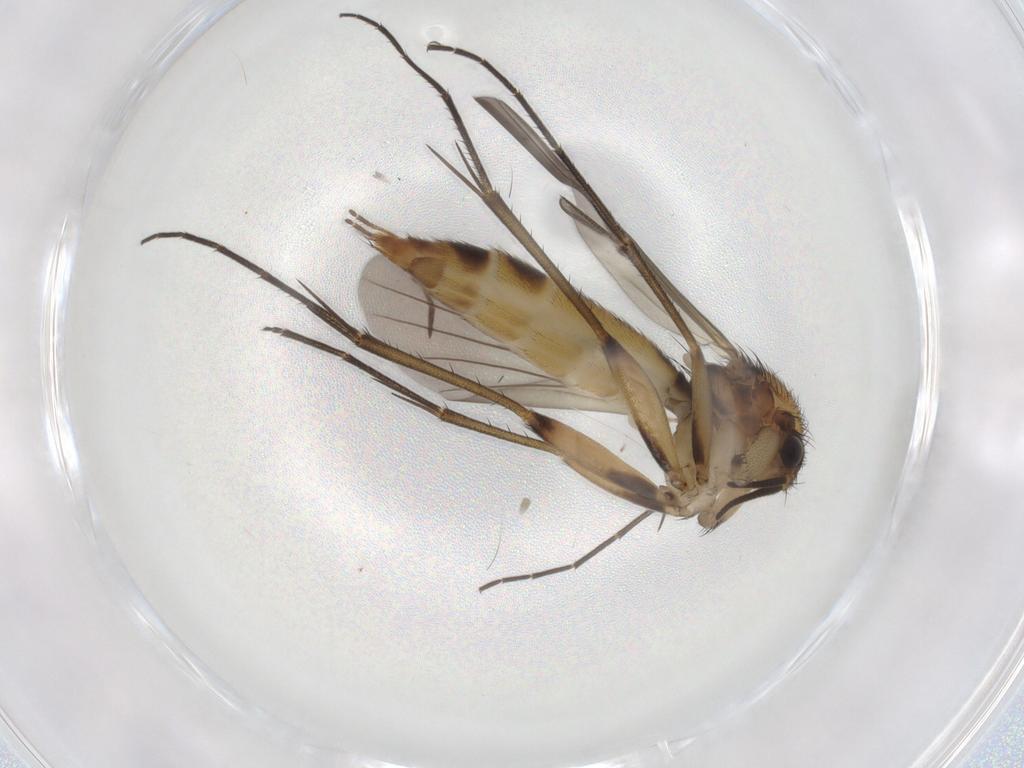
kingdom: Animalia
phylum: Arthropoda
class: Insecta
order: Diptera
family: Mycetophilidae
